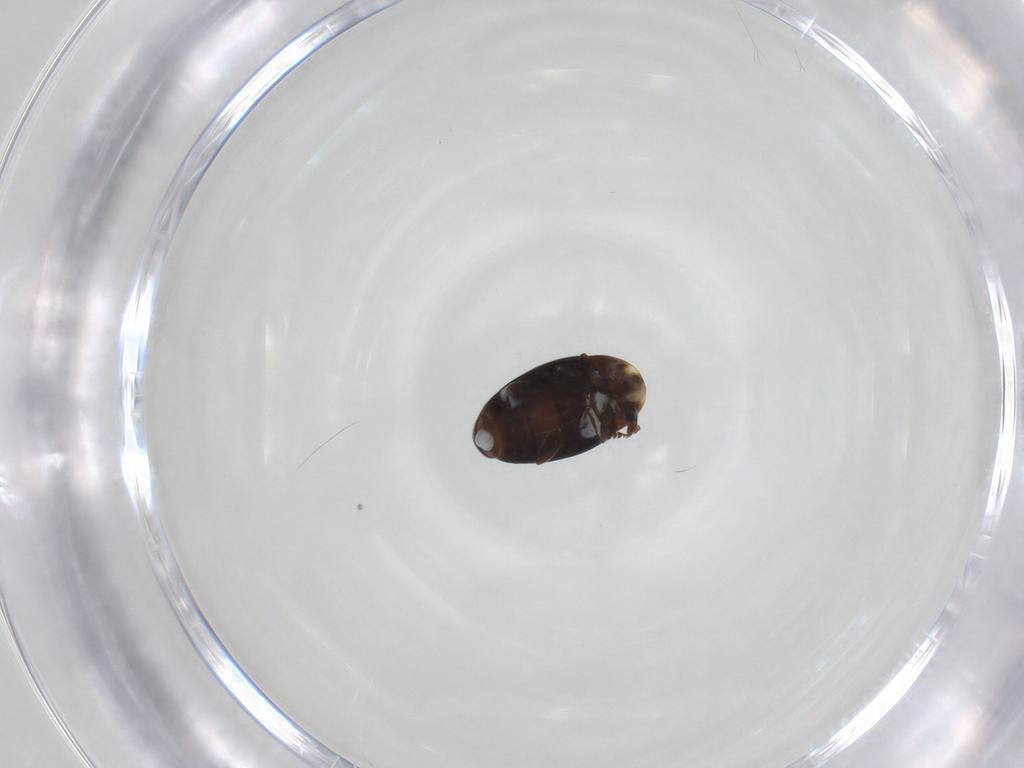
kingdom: Animalia
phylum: Arthropoda
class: Insecta
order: Coleoptera
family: Corylophidae
